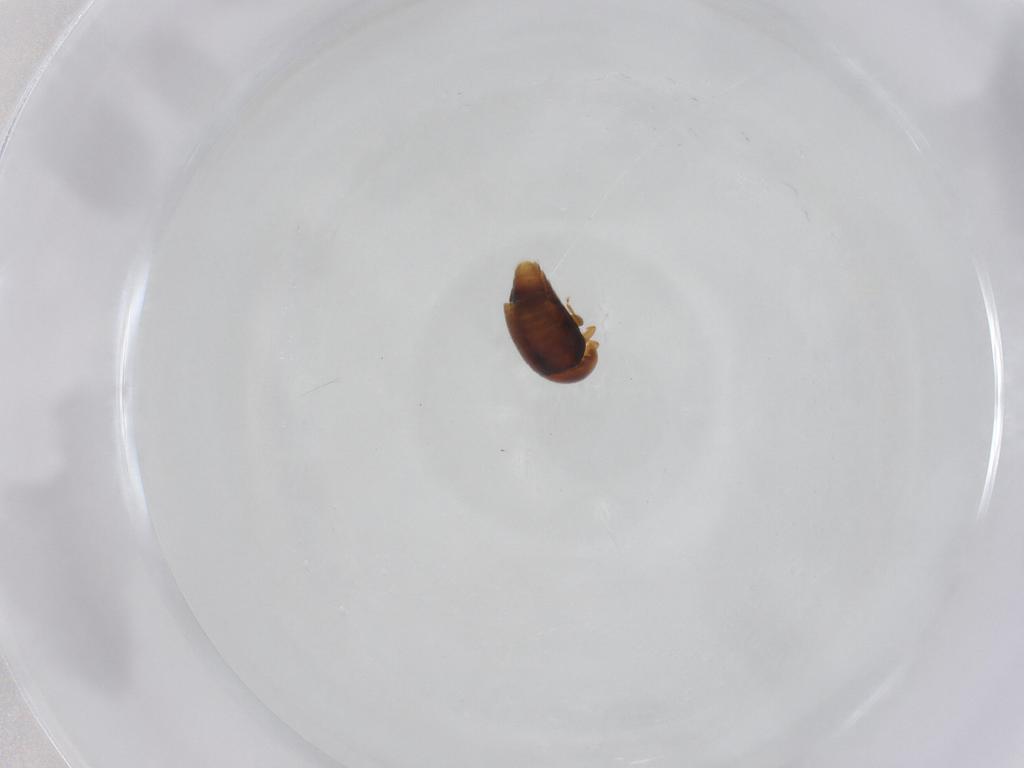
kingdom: Animalia
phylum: Arthropoda
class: Insecta
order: Coleoptera
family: Corylophidae
